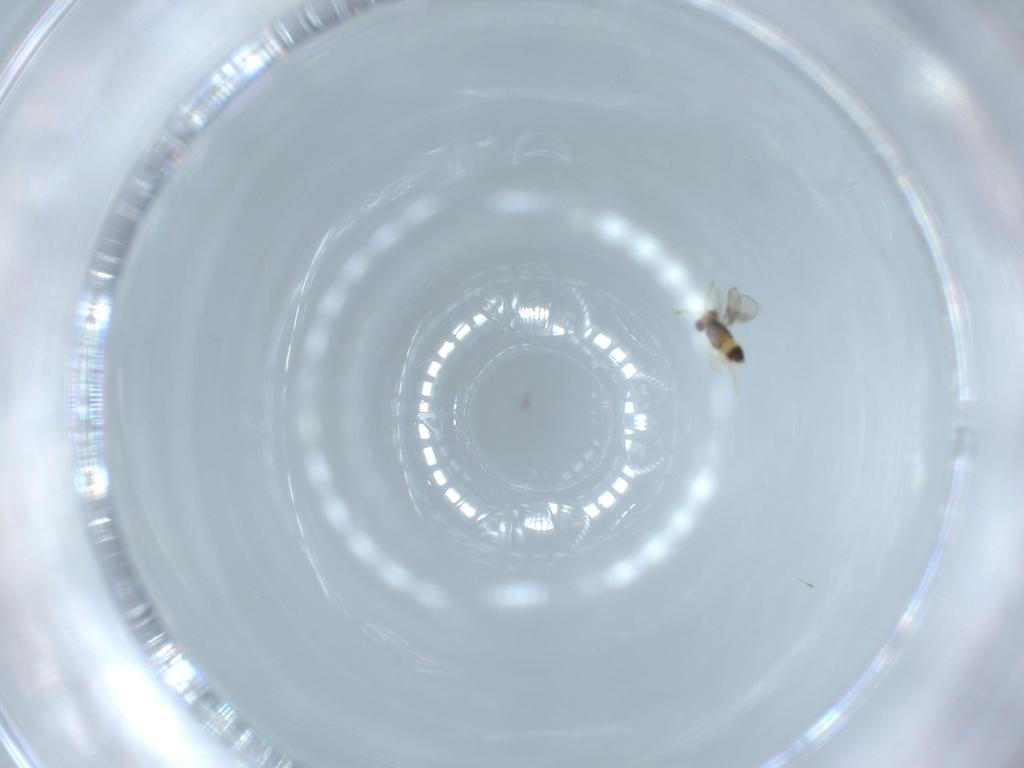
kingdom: Animalia
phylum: Arthropoda
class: Insecta
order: Hymenoptera
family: Aphelinidae
